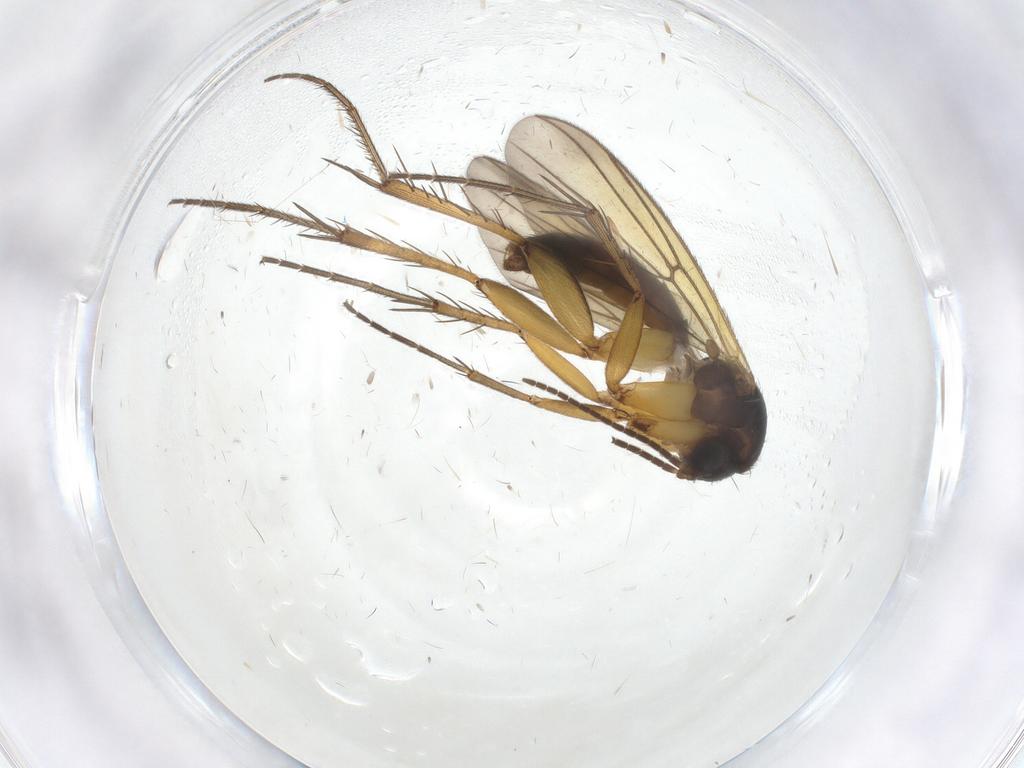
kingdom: Animalia
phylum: Arthropoda
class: Insecta
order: Diptera
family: Mycetophilidae
